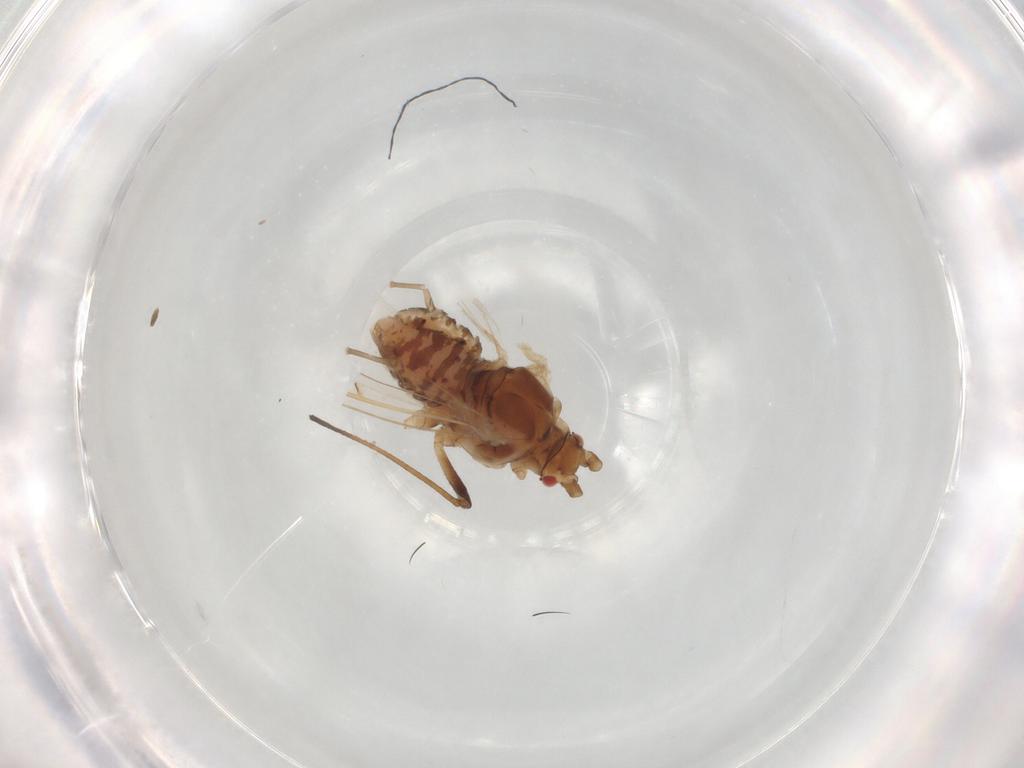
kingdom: Animalia
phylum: Arthropoda
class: Insecta
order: Hemiptera
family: Aphididae
